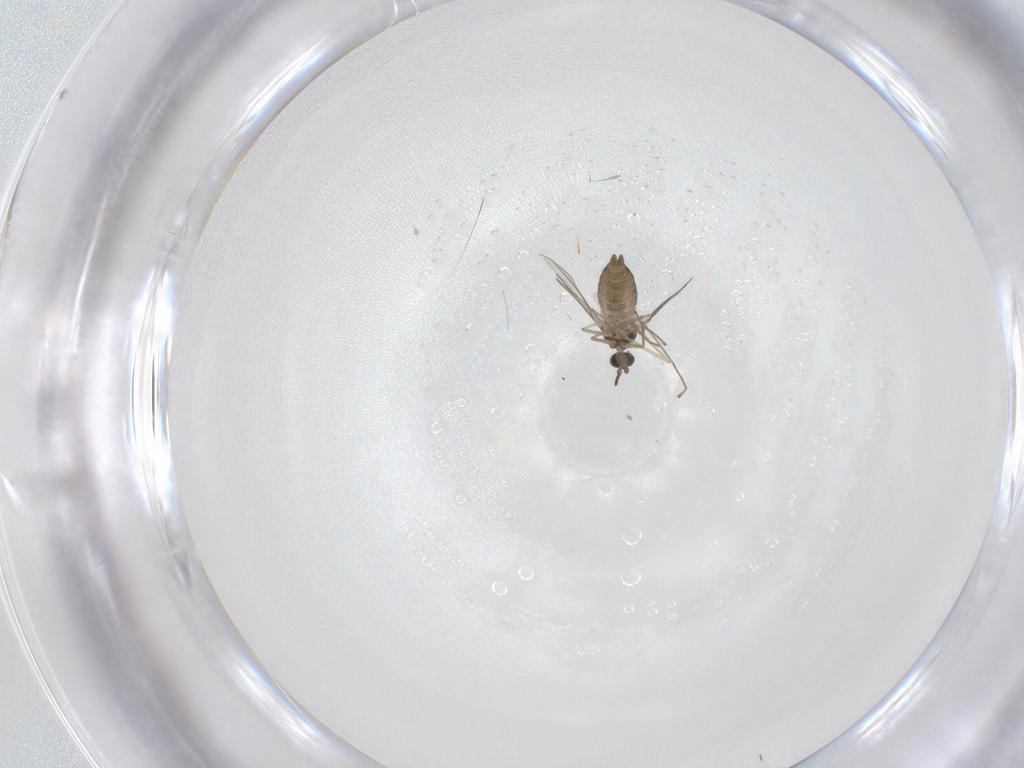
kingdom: Animalia
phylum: Arthropoda
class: Insecta
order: Diptera
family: Cecidomyiidae
